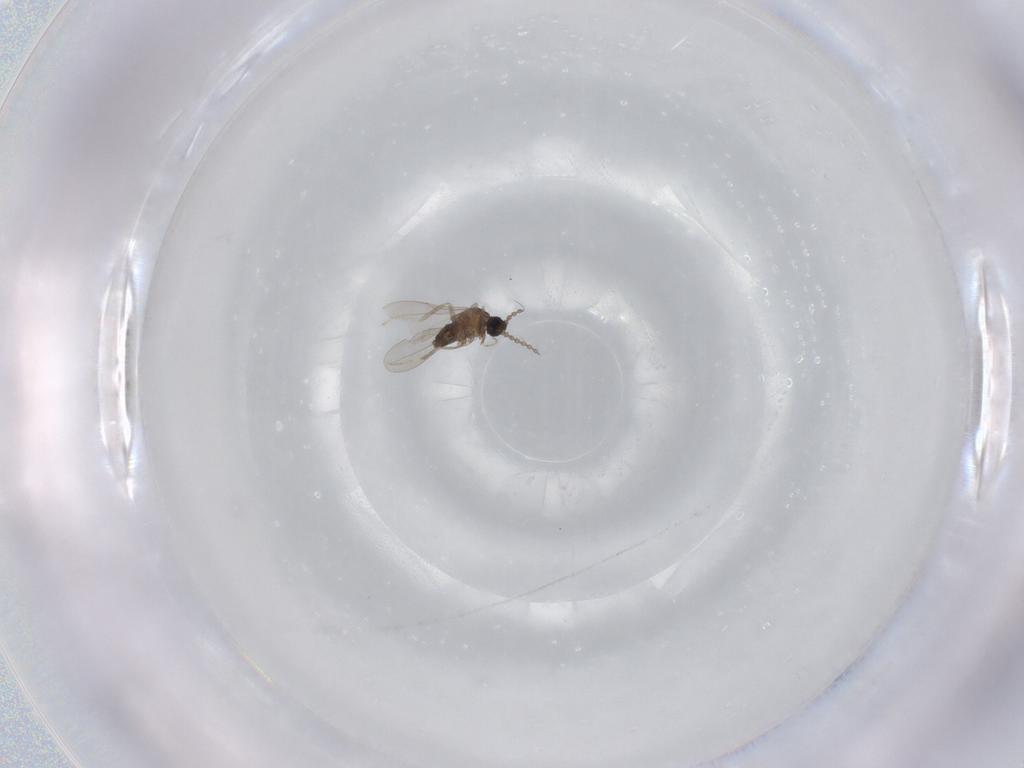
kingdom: Animalia
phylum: Arthropoda
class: Insecta
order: Diptera
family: Cecidomyiidae
